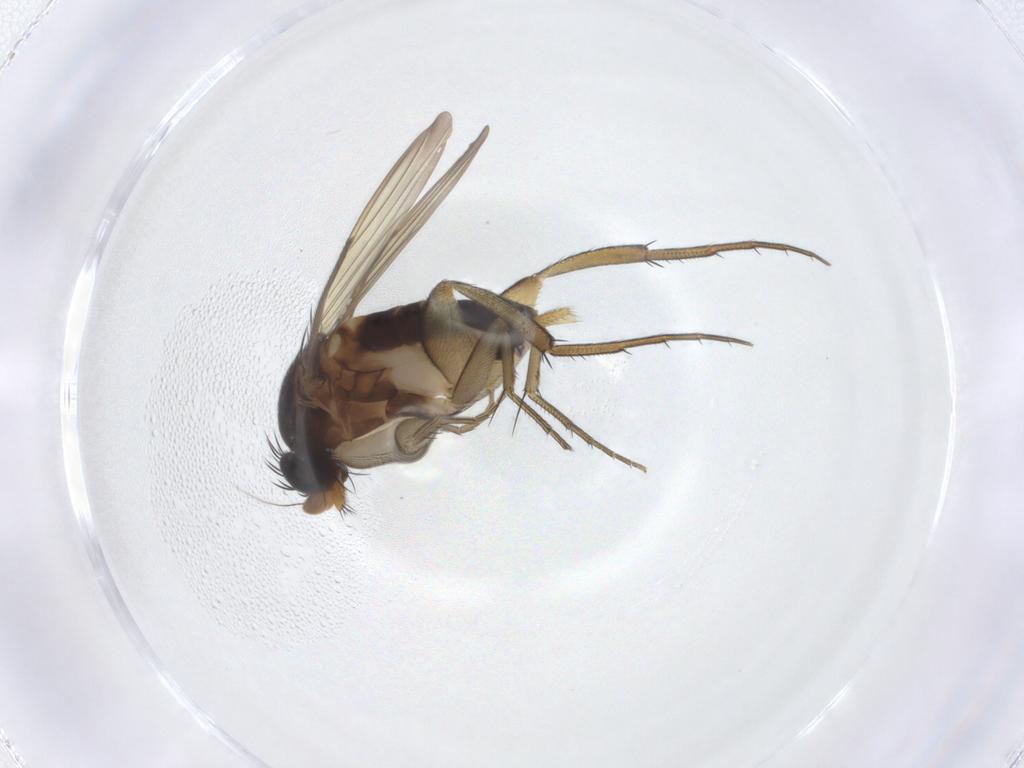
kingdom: Animalia
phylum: Arthropoda
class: Insecta
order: Diptera
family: Phoridae
